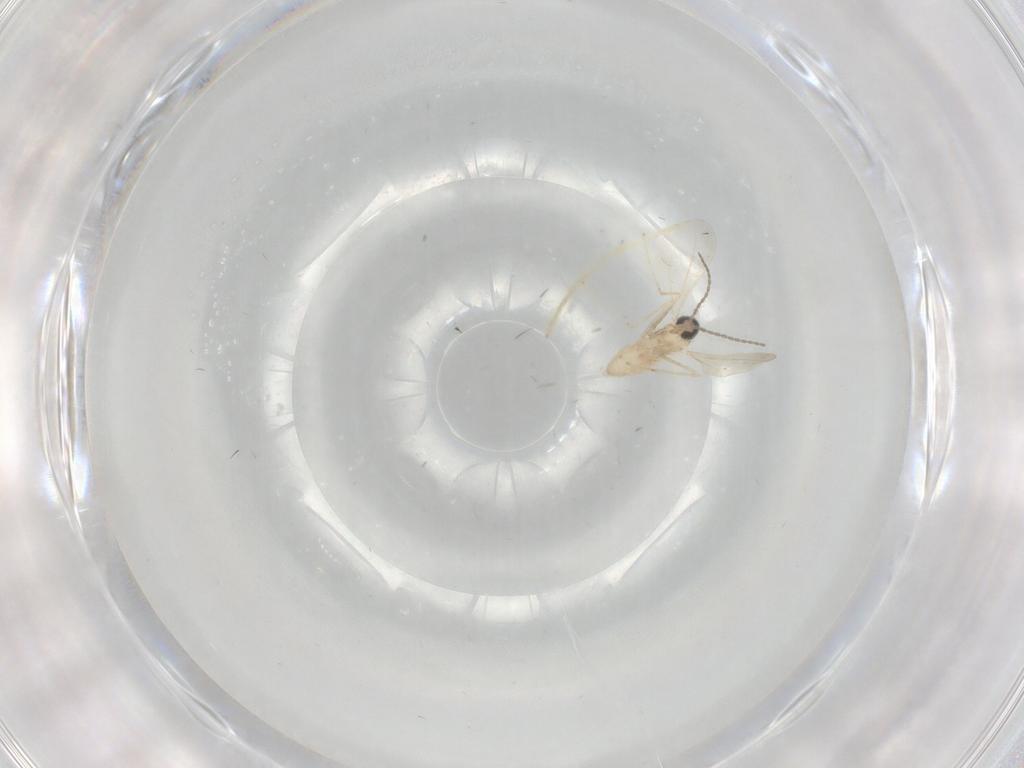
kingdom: Animalia
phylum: Arthropoda
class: Insecta
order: Diptera
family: Cecidomyiidae
